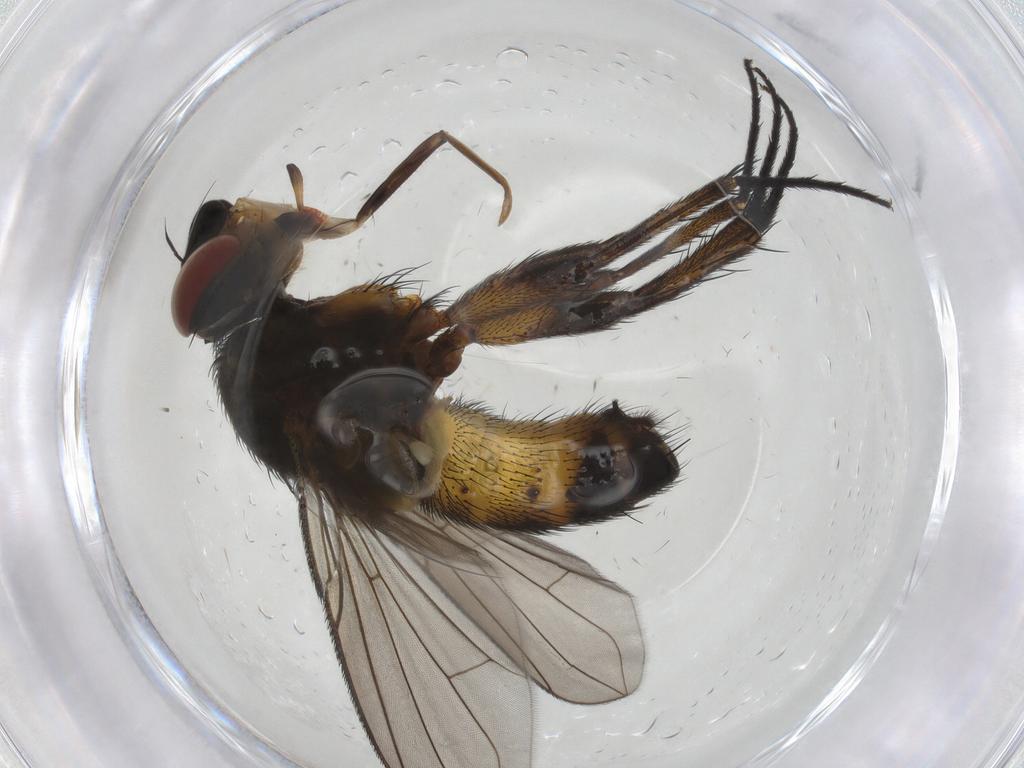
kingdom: Animalia
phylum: Arthropoda
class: Insecta
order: Diptera
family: Tachinidae
